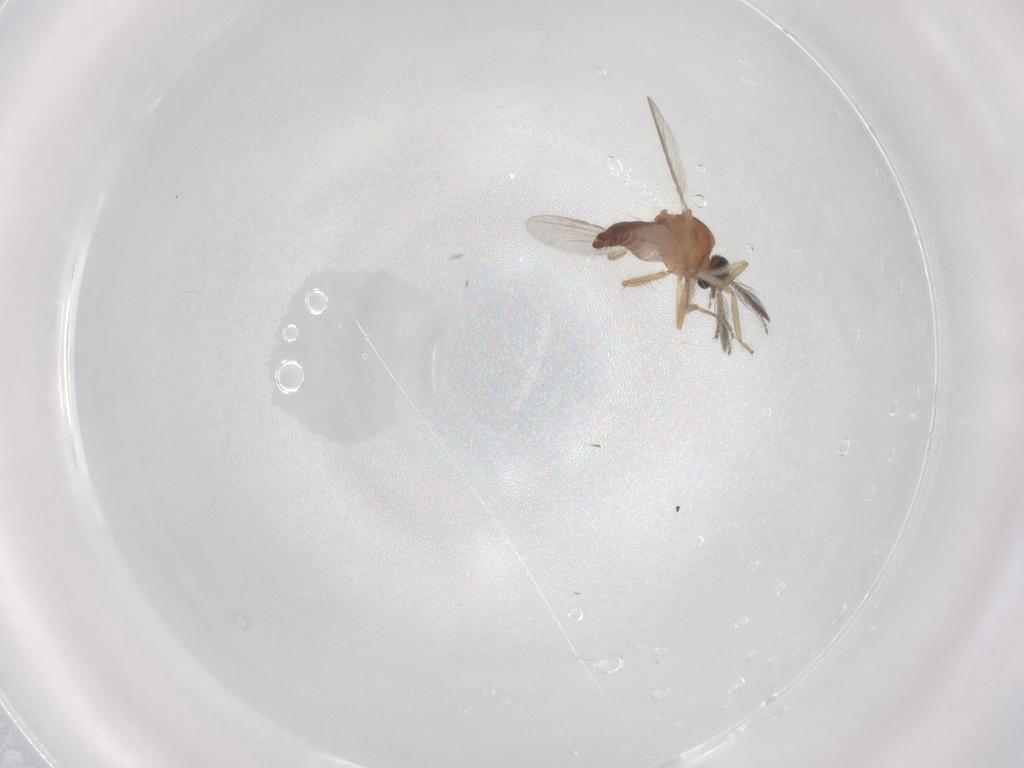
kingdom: Animalia
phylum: Arthropoda
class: Insecta
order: Diptera
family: Ceratopogonidae
